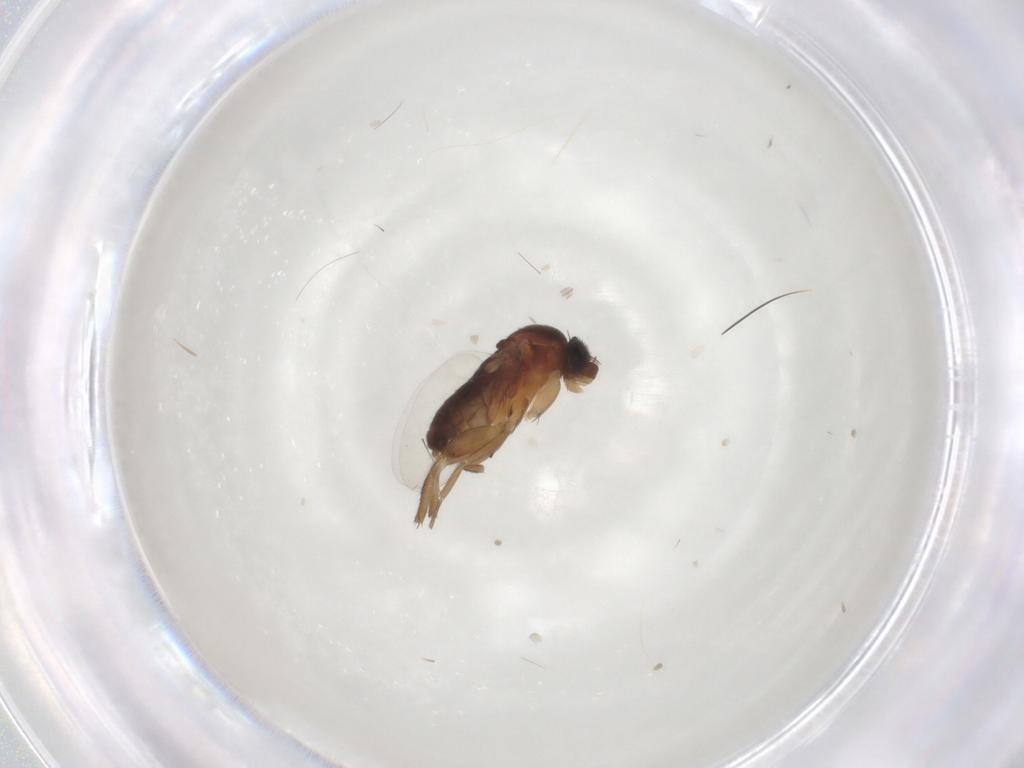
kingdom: Animalia
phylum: Arthropoda
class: Insecta
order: Diptera
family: Phoridae
